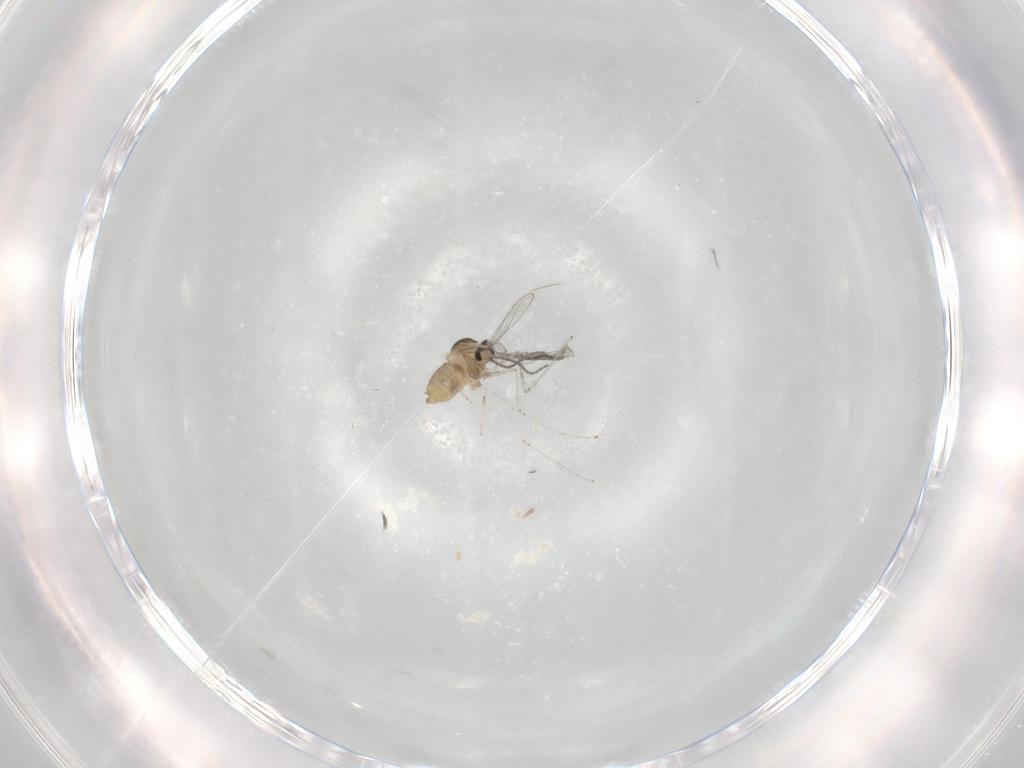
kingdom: Animalia
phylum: Arthropoda
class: Insecta
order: Diptera
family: Cecidomyiidae
